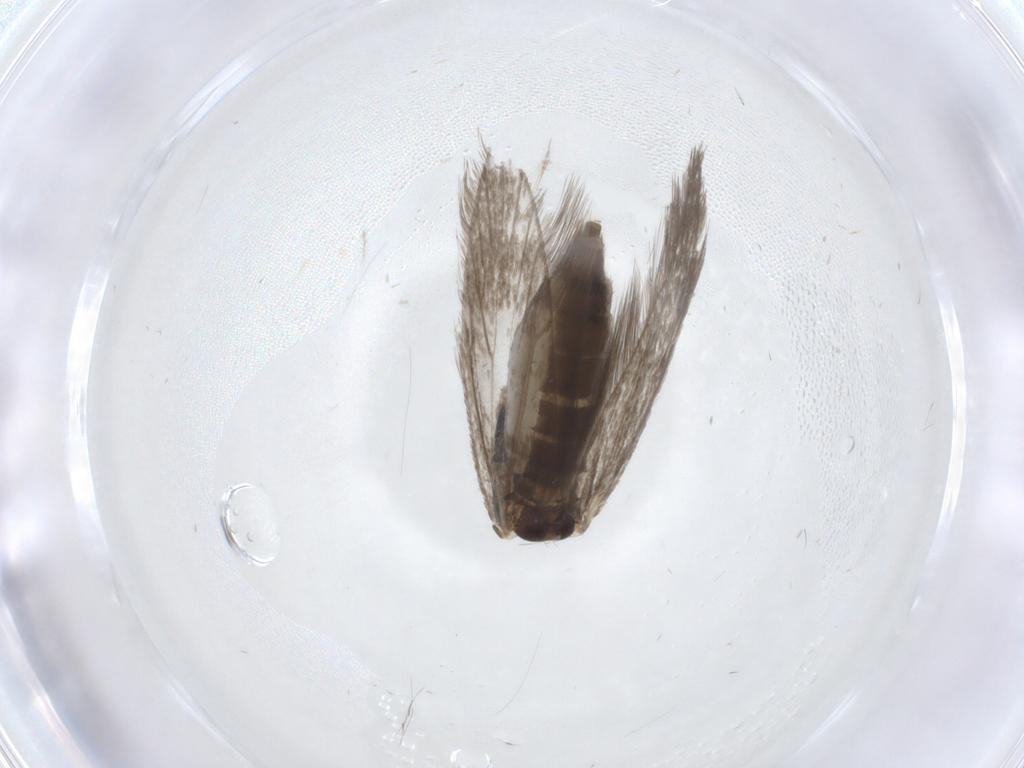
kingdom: Animalia
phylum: Arthropoda
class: Insecta
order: Lepidoptera
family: Micropterigidae
